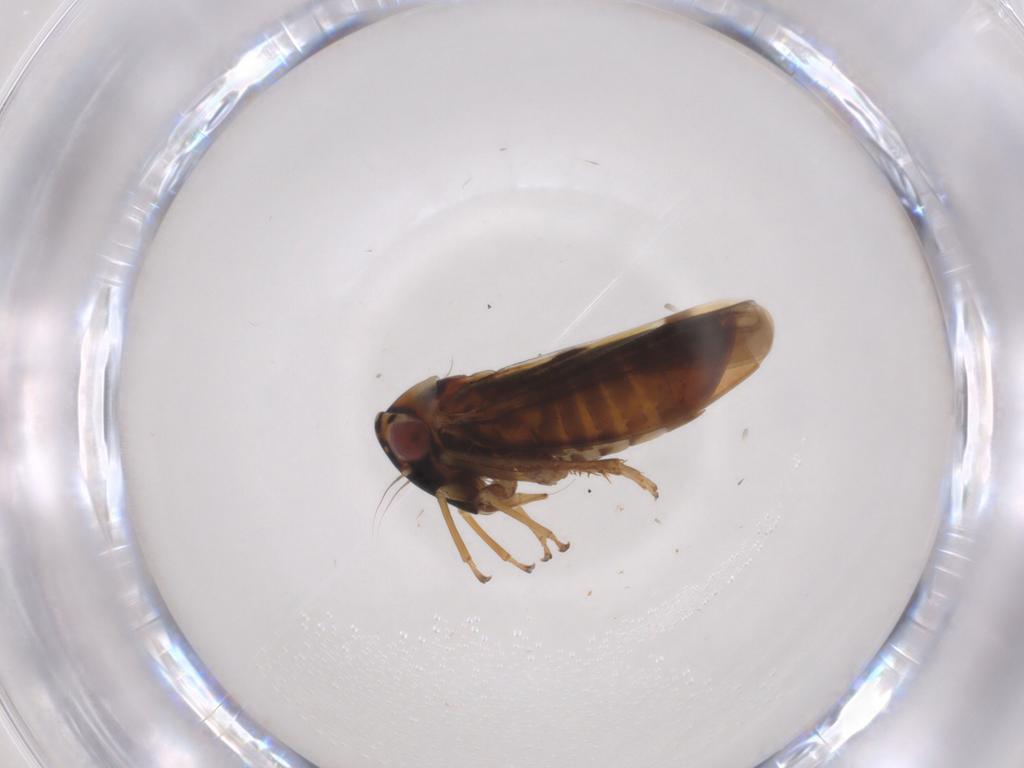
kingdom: Animalia
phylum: Arthropoda
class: Insecta
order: Hemiptera
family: Cicadellidae
